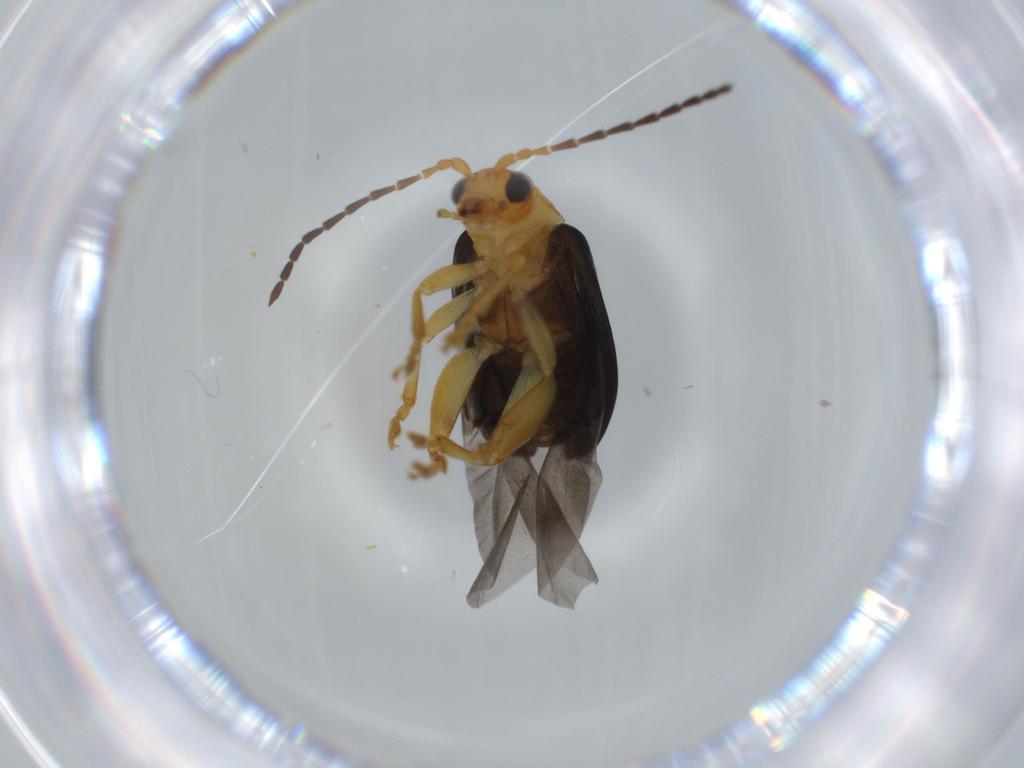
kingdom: Animalia
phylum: Arthropoda
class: Insecta
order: Coleoptera
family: Chrysomelidae
